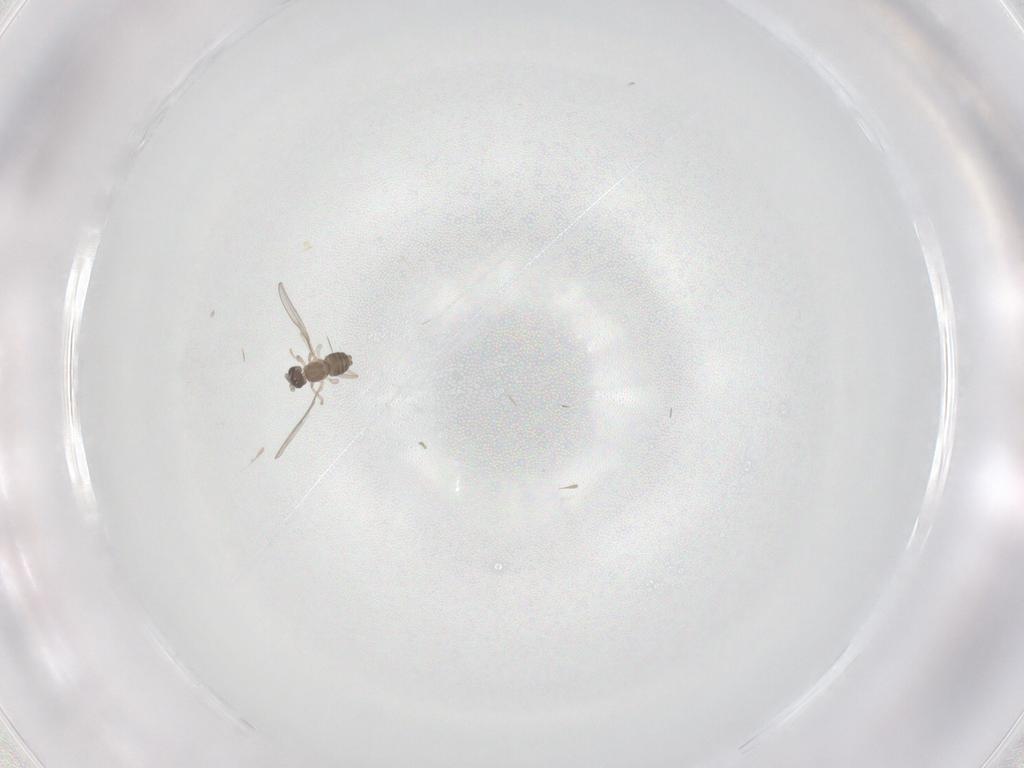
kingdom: Animalia
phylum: Arthropoda
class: Insecta
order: Diptera
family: Cecidomyiidae
